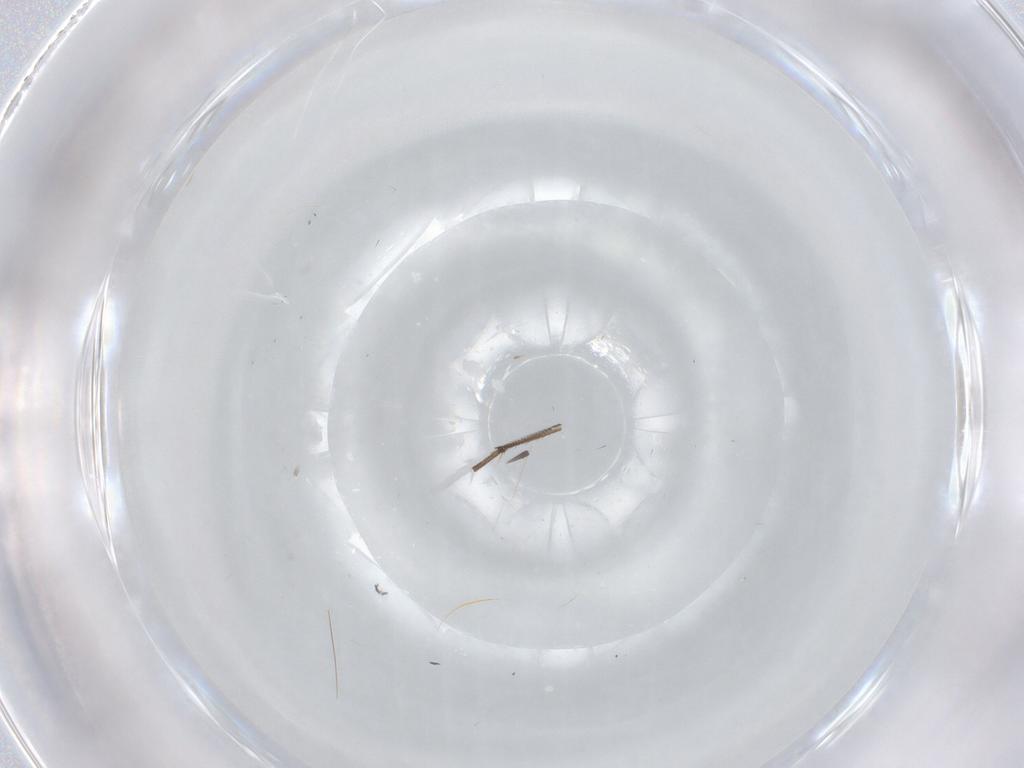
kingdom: Animalia
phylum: Arthropoda
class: Insecta
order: Diptera
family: Sciaridae
